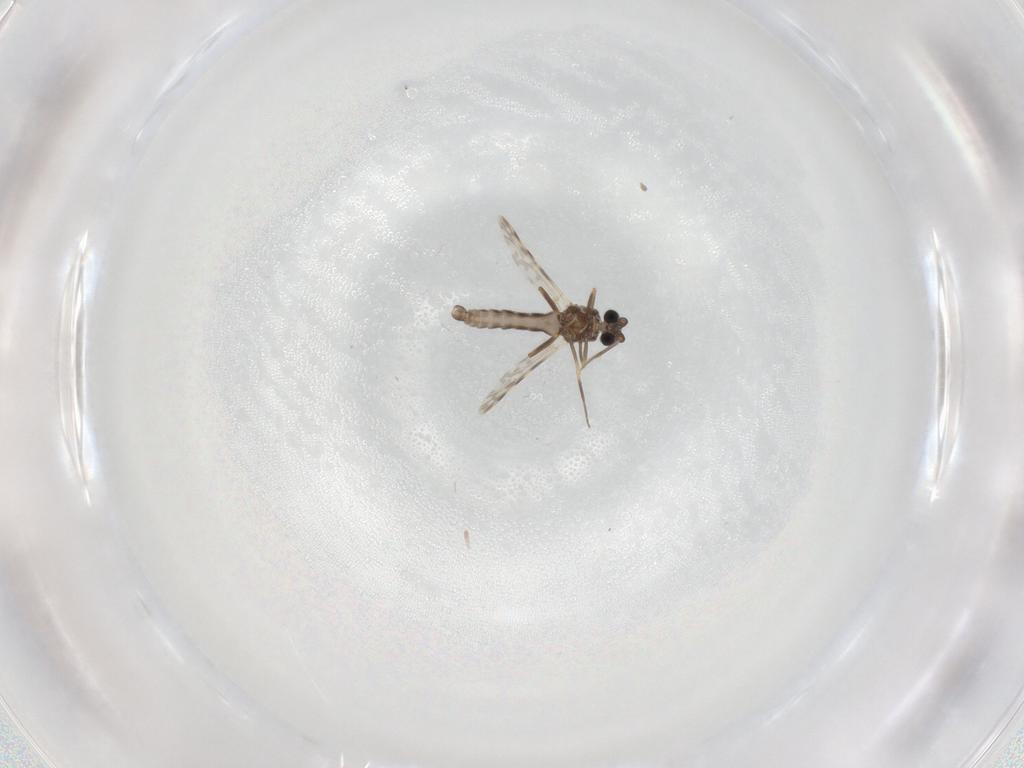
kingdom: Animalia
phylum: Arthropoda
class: Insecta
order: Diptera
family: Ceratopogonidae
